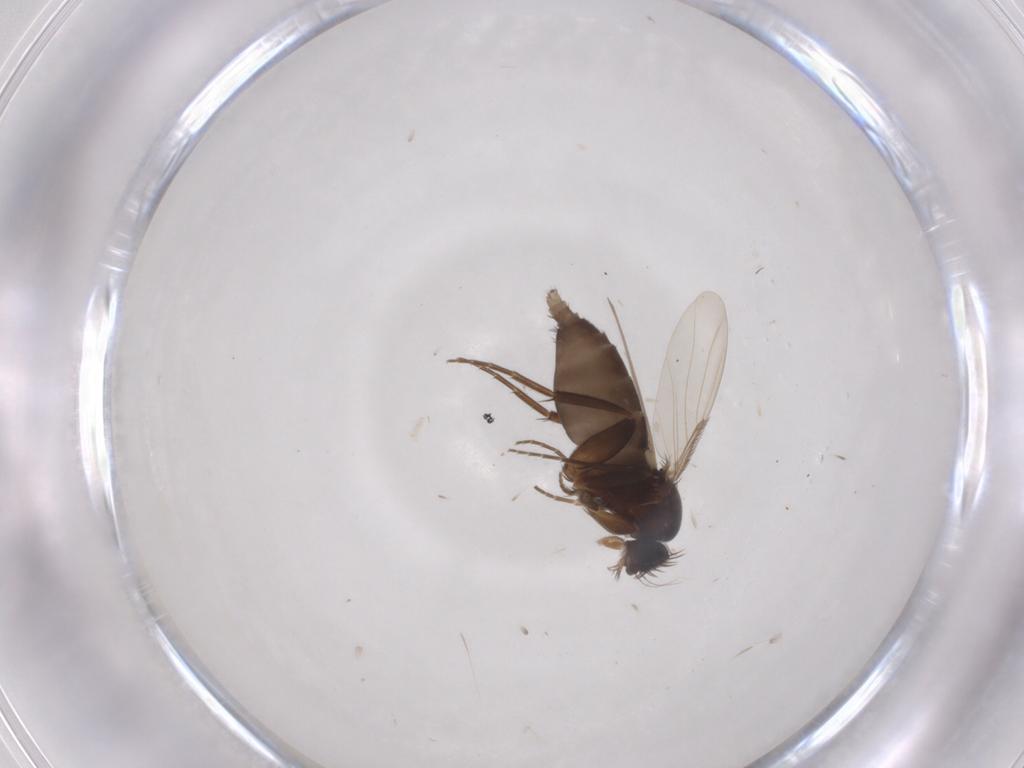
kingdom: Animalia
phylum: Arthropoda
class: Insecta
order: Diptera
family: Phoridae
